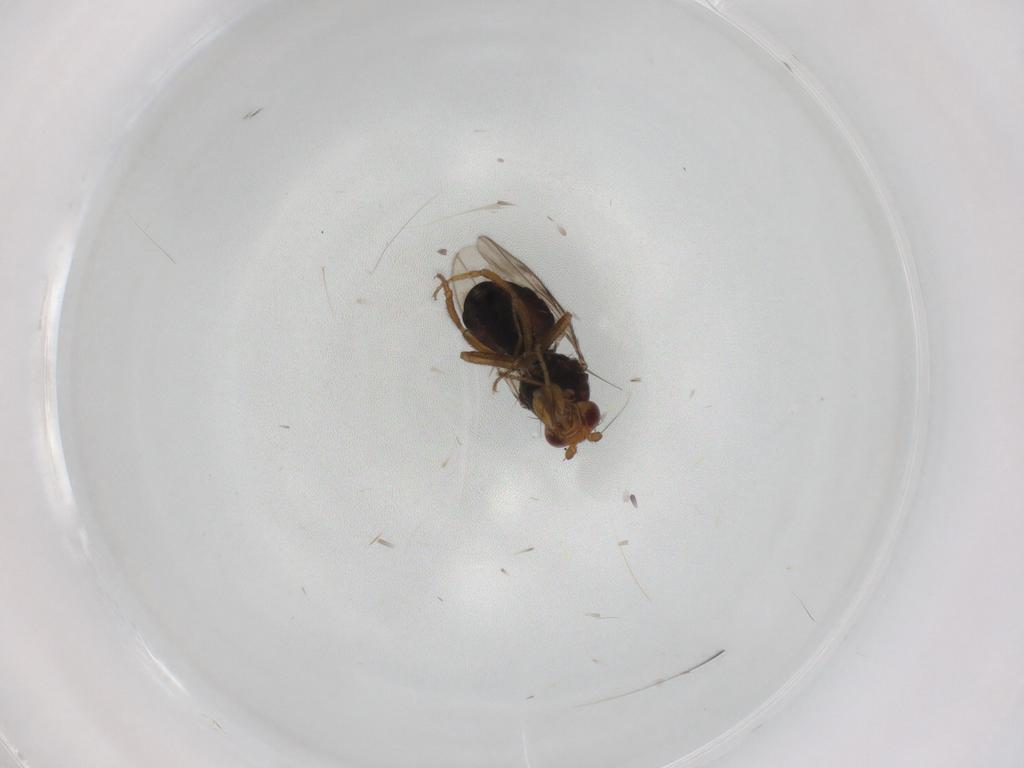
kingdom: Animalia
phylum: Arthropoda
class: Insecta
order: Diptera
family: Sphaeroceridae
